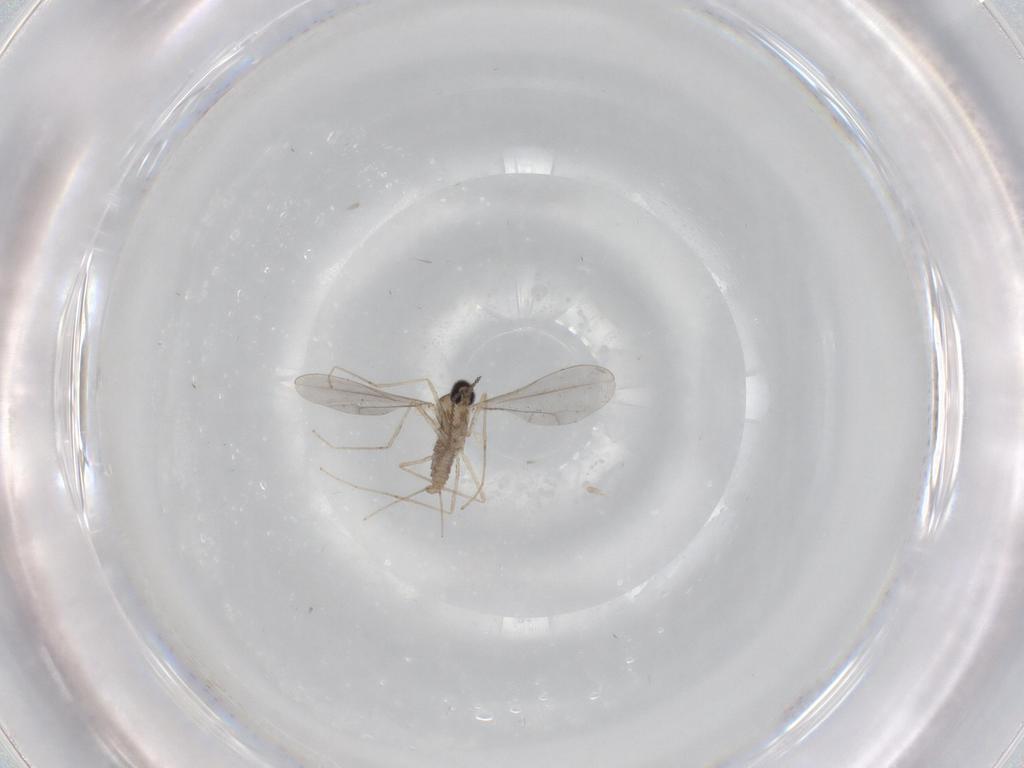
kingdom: Animalia
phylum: Arthropoda
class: Insecta
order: Diptera
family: Cecidomyiidae
